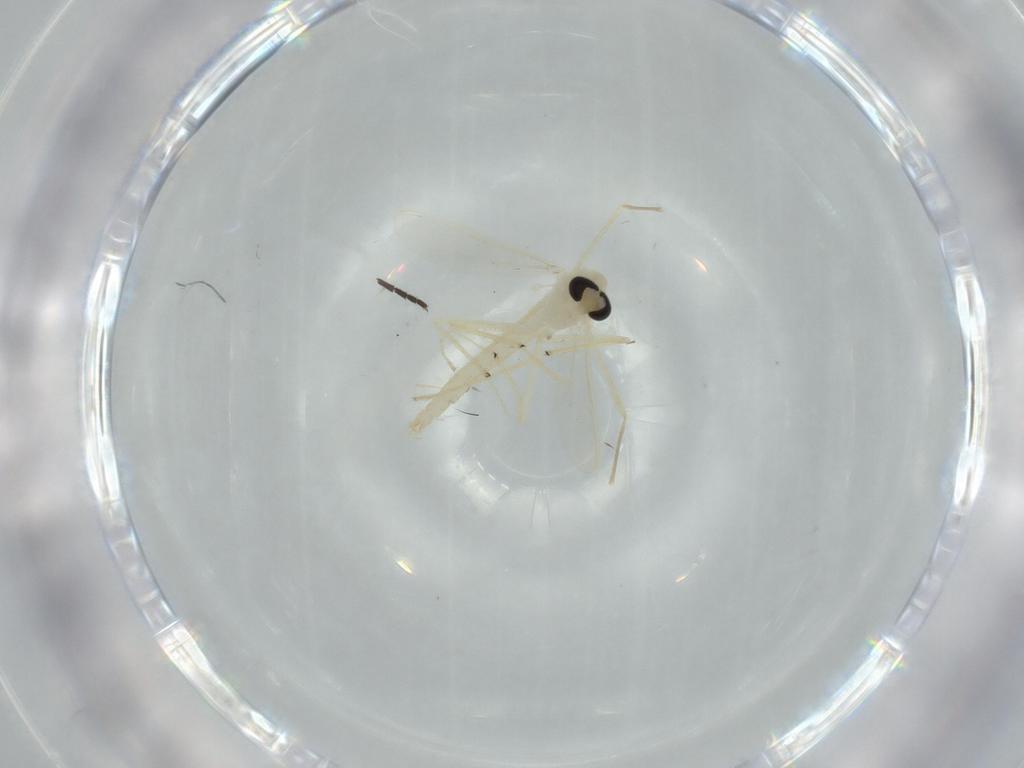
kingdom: Animalia
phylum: Arthropoda
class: Insecta
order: Diptera
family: Chironomidae
